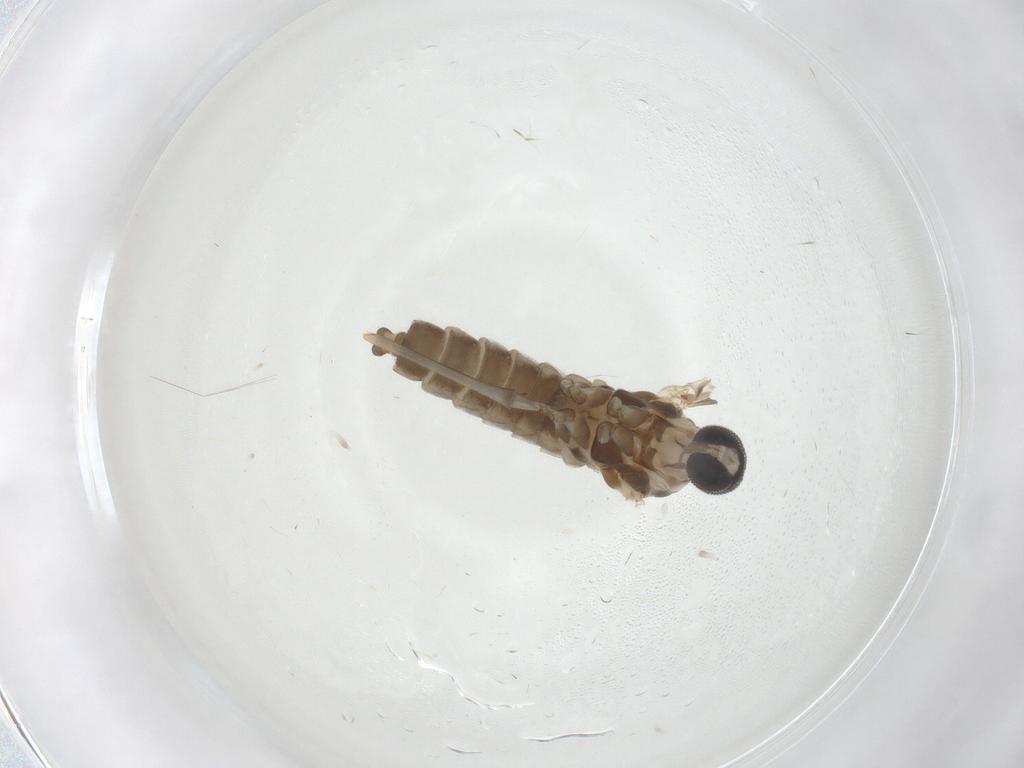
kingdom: Animalia
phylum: Arthropoda
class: Insecta
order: Diptera
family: Cecidomyiidae
